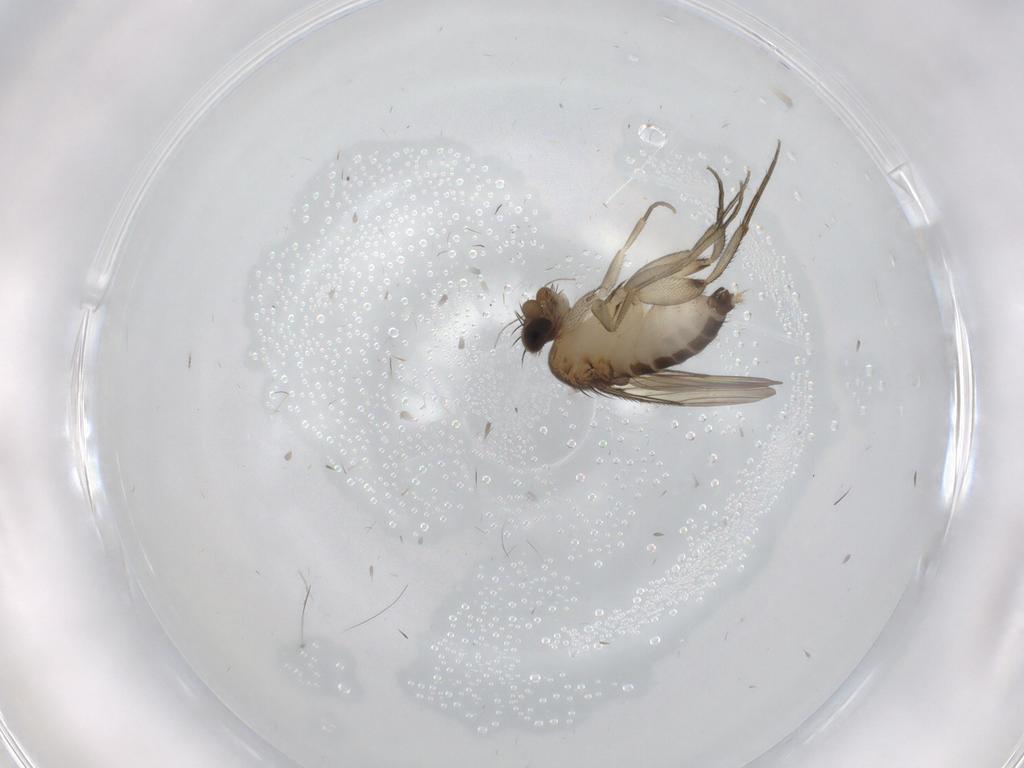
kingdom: Animalia
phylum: Arthropoda
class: Insecta
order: Diptera
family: Phoridae
